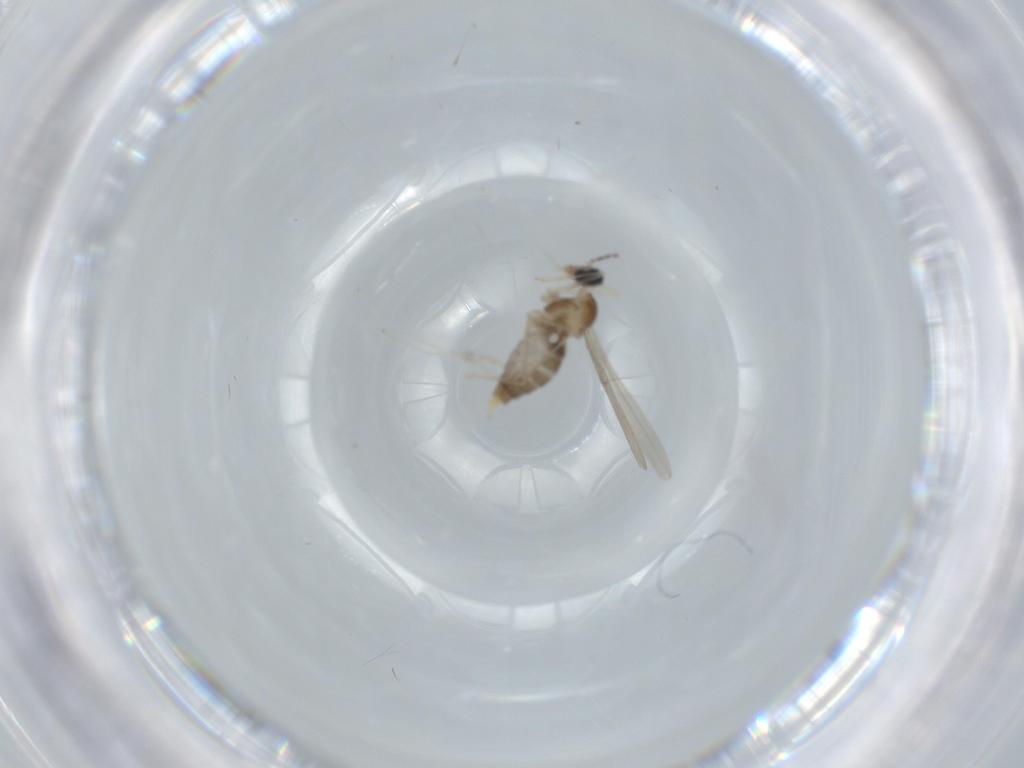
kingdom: Animalia
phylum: Arthropoda
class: Insecta
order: Diptera
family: Cecidomyiidae
